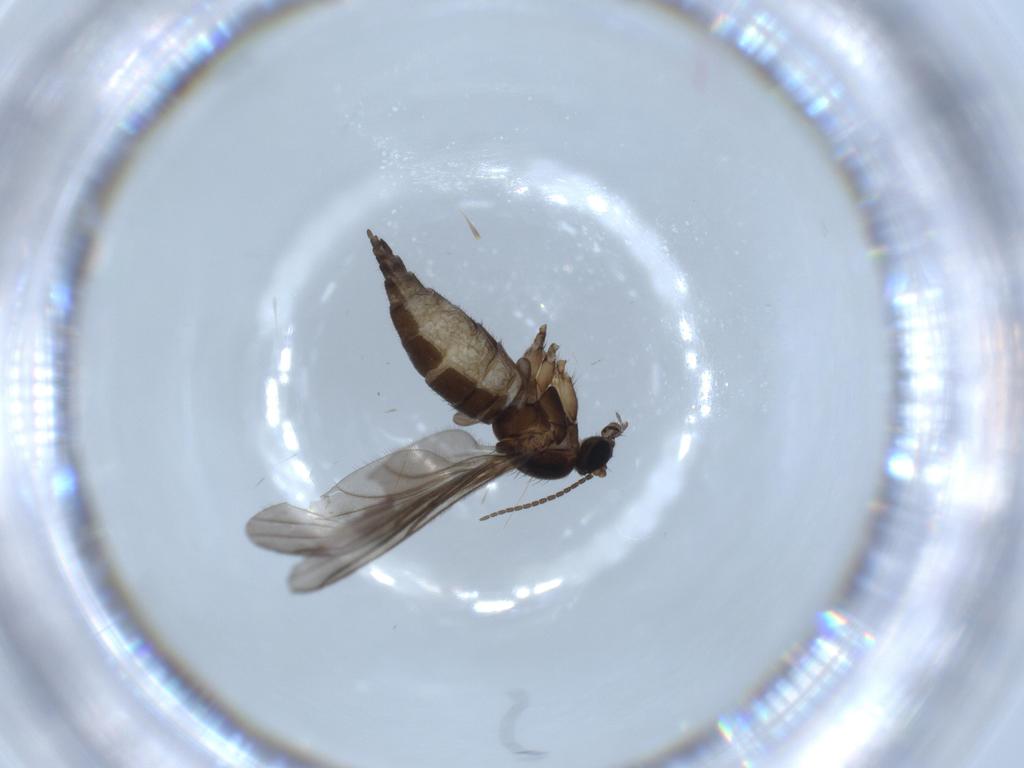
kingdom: Animalia
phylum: Arthropoda
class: Insecta
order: Diptera
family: Sciaridae
